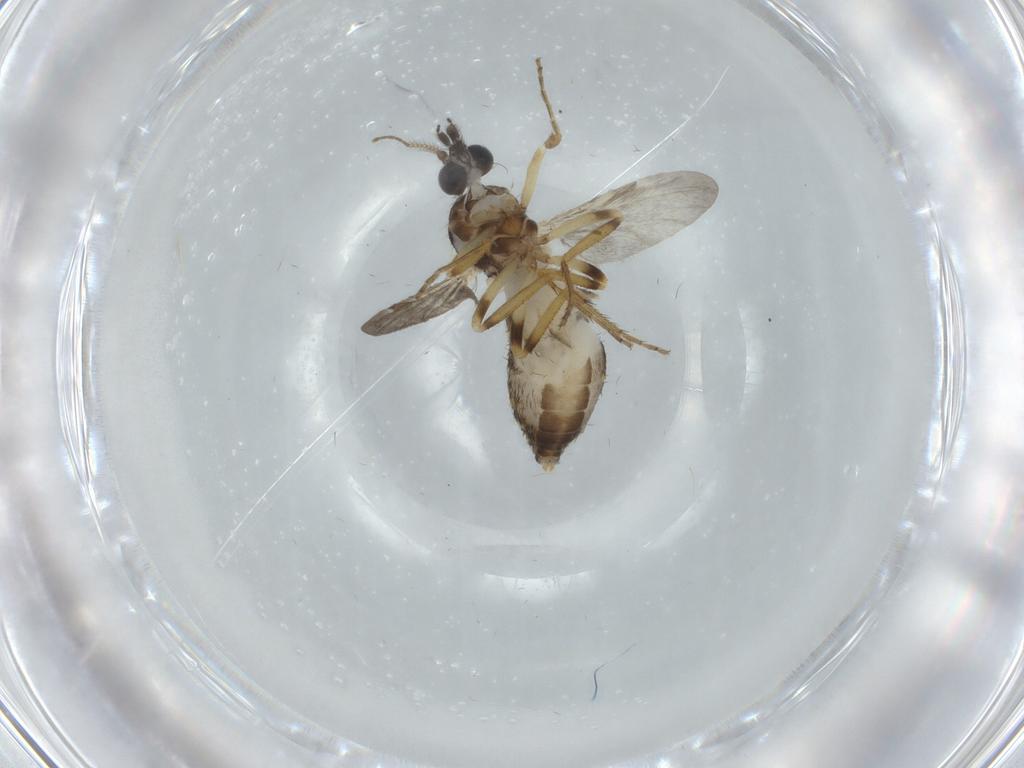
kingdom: Animalia
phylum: Arthropoda
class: Insecta
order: Diptera
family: Ceratopogonidae
